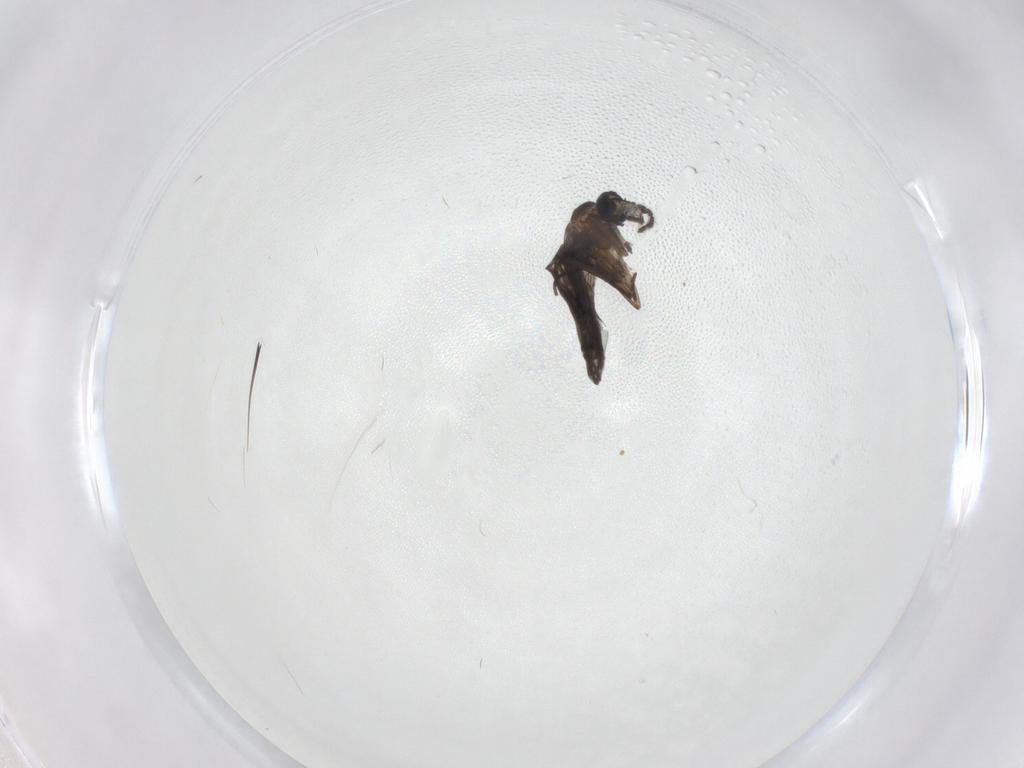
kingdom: Animalia
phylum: Arthropoda
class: Insecta
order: Diptera
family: Sciaridae
